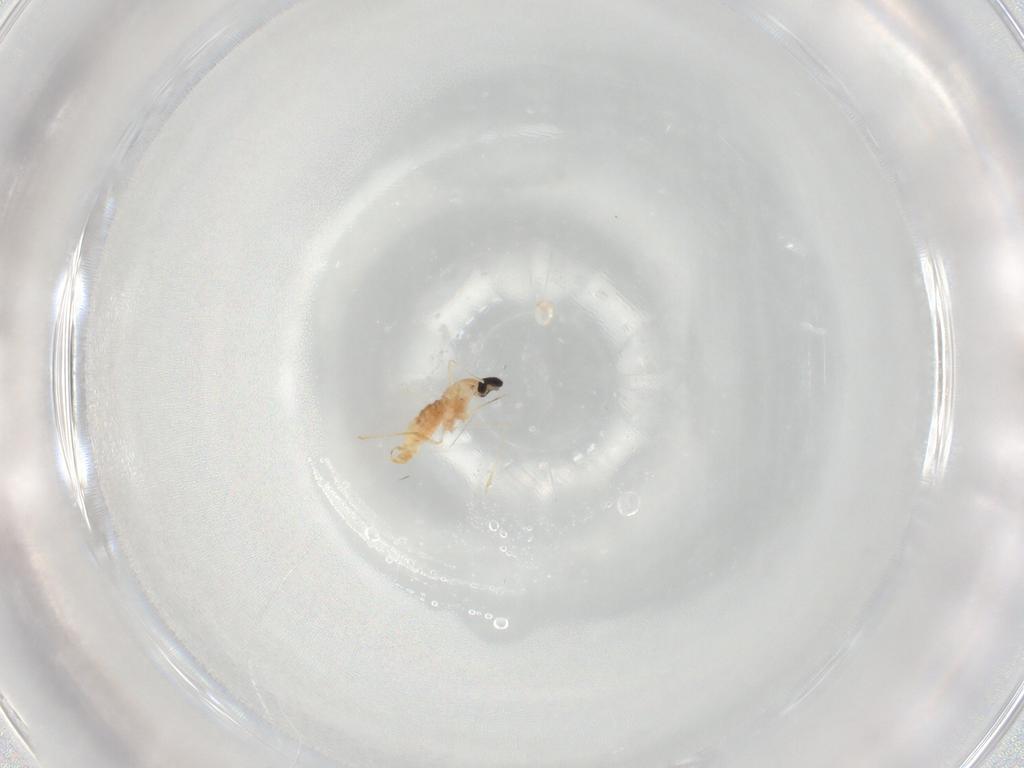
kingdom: Animalia
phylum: Arthropoda
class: Insecta
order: Diptera
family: Cecidomyiidae
